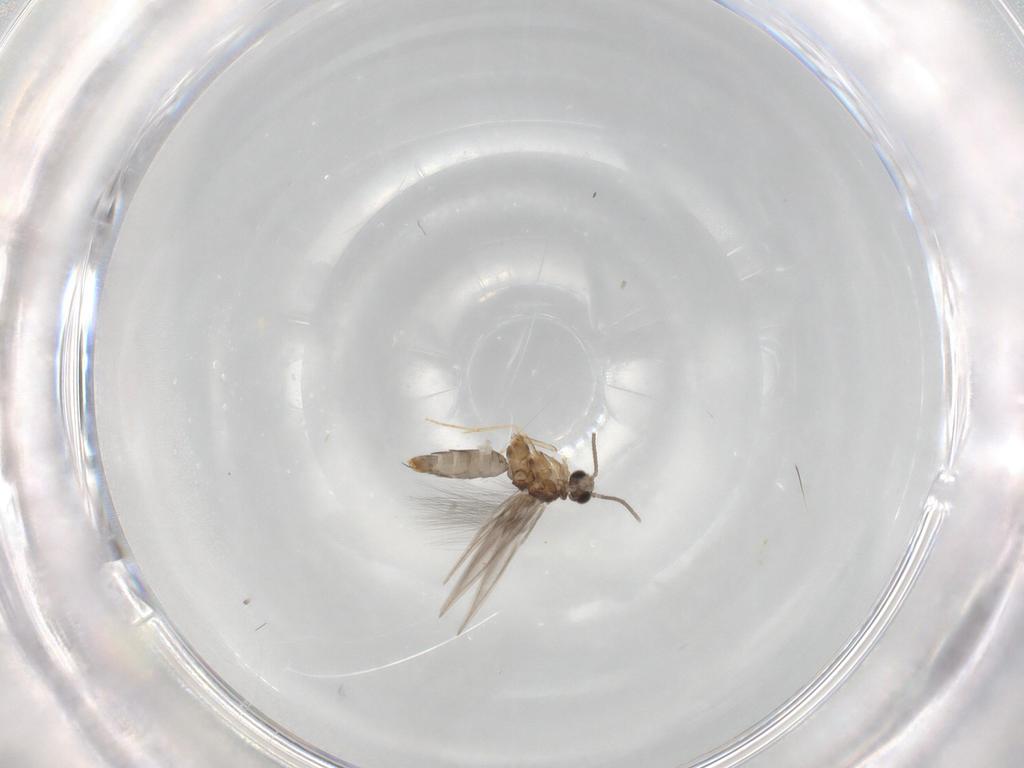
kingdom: Animalia
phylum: Arthropoda
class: Insecta
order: Trichoptera
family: Hydroptilidae
